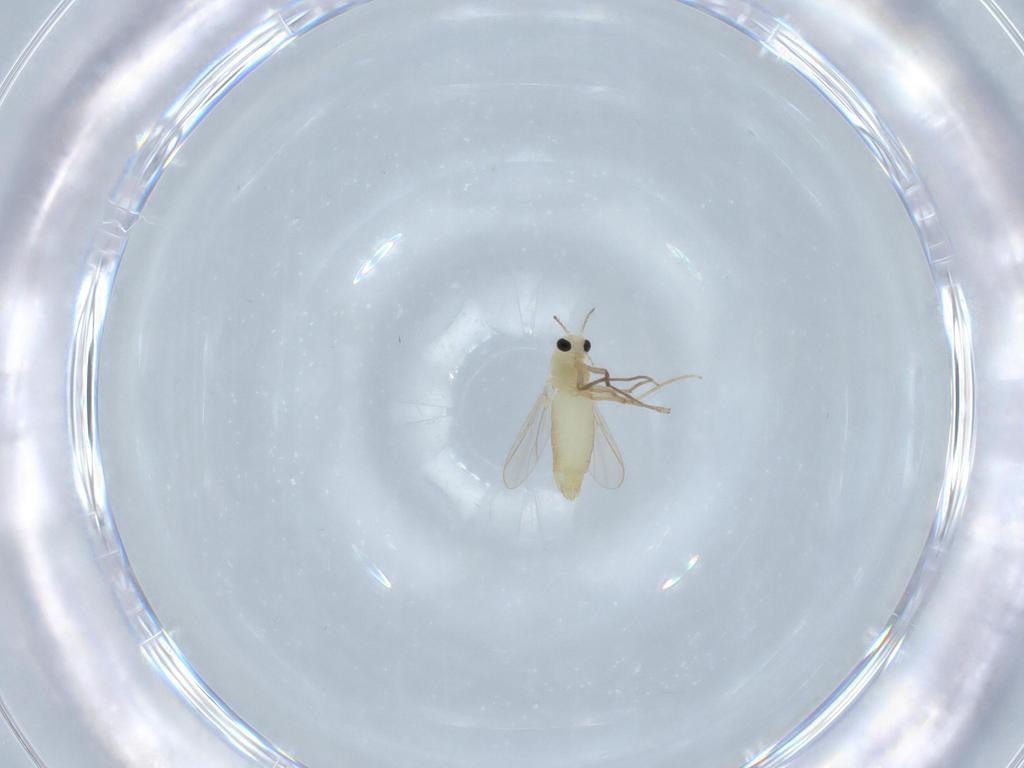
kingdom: Animalia
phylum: Arthropoda
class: Insecta
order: Diptera
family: Chironomidae
